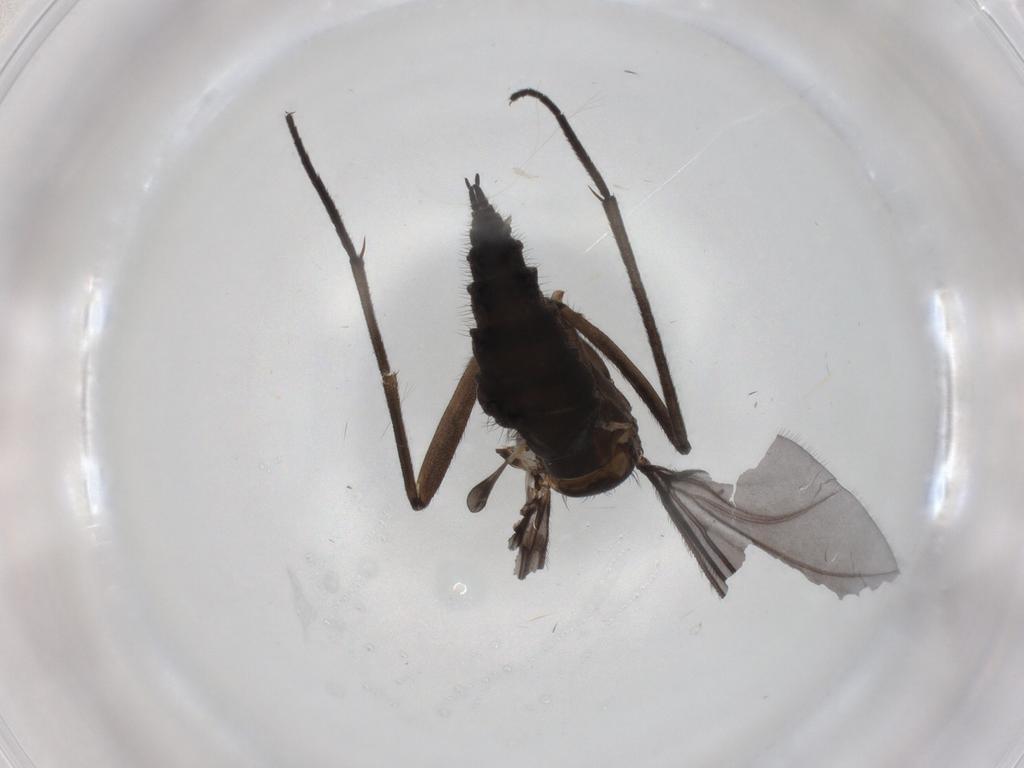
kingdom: Animalia
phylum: Arthropoda
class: Insecta
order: Diptera
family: Sciaridae
